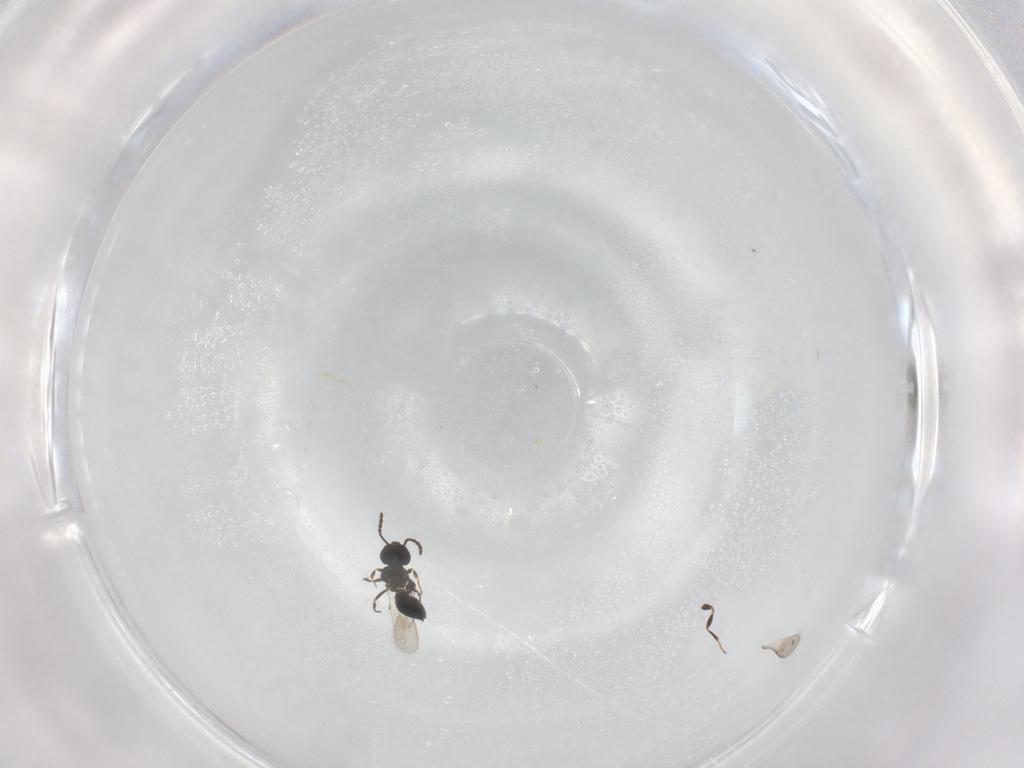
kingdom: Animalia
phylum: Arthropoda
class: Insecta
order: Hymenoptera
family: Scelionidae
